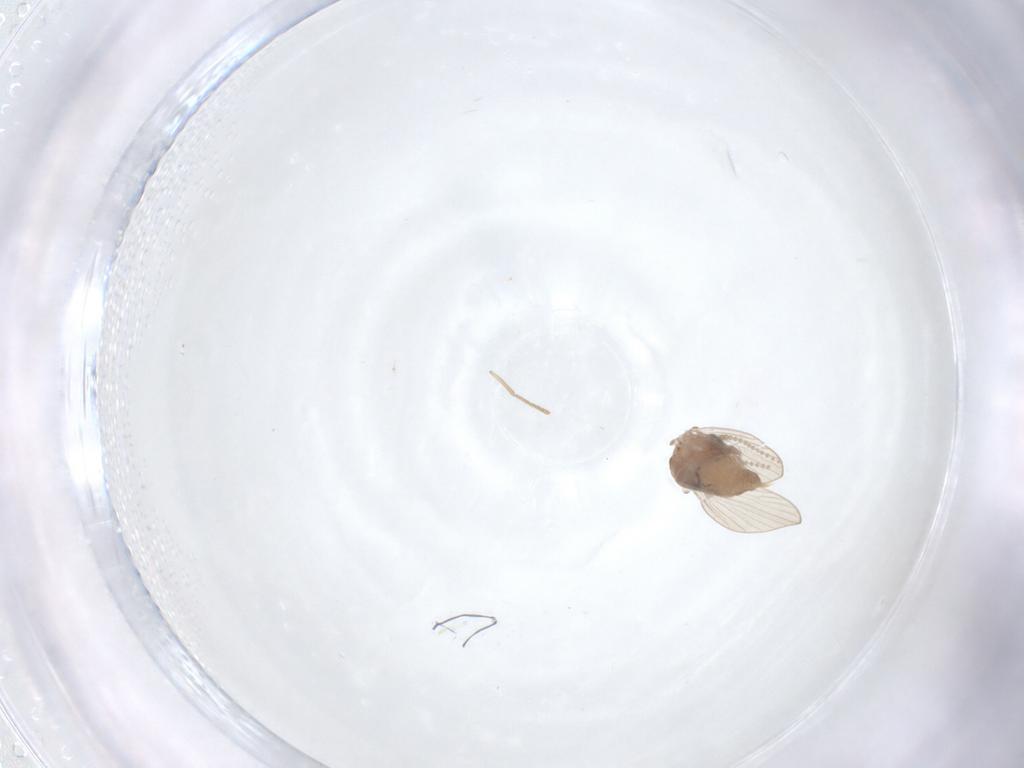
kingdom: Animalia
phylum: Arthropoda
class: Insecta
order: Diptera
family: Psychodidae
